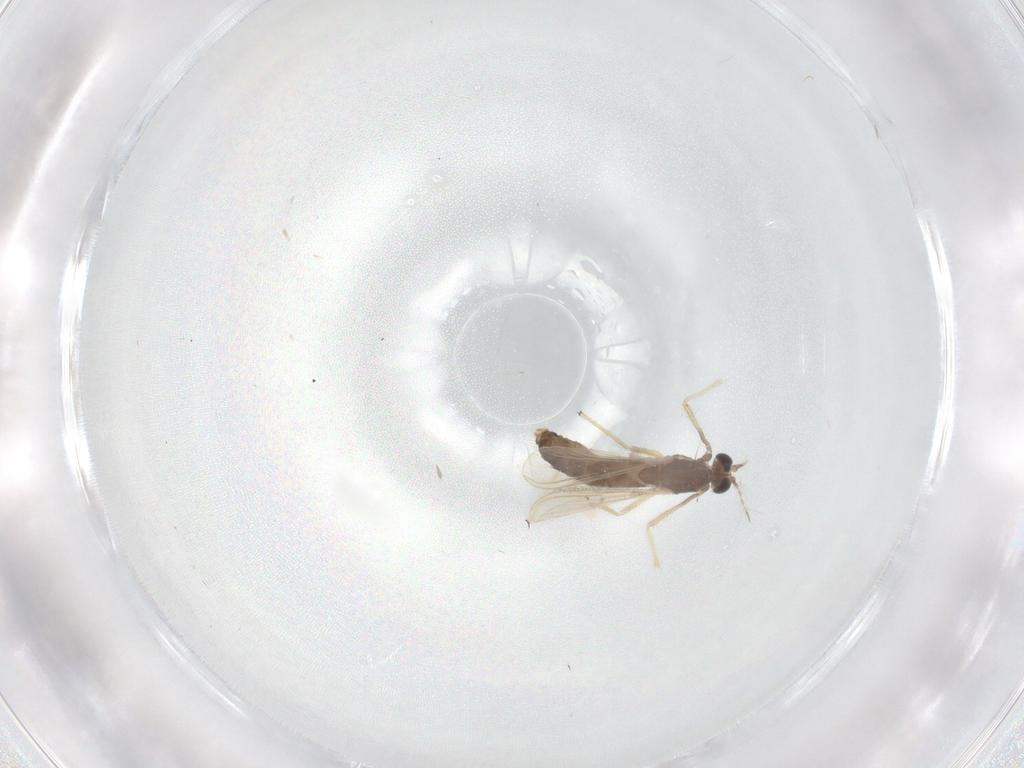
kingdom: Animalia
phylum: Arthropoda
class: Insecta
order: Diptera
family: Chironomidae
